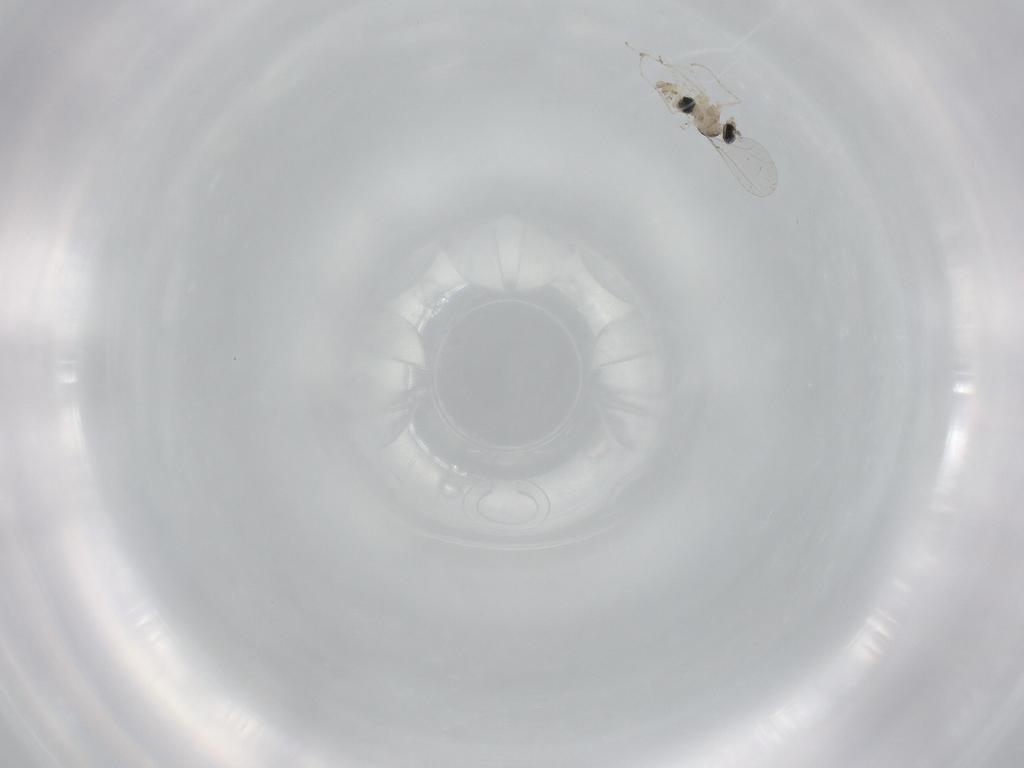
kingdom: Animalia
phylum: Arthropoda
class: Insecta
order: Diptera
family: Cecidomyiidae
